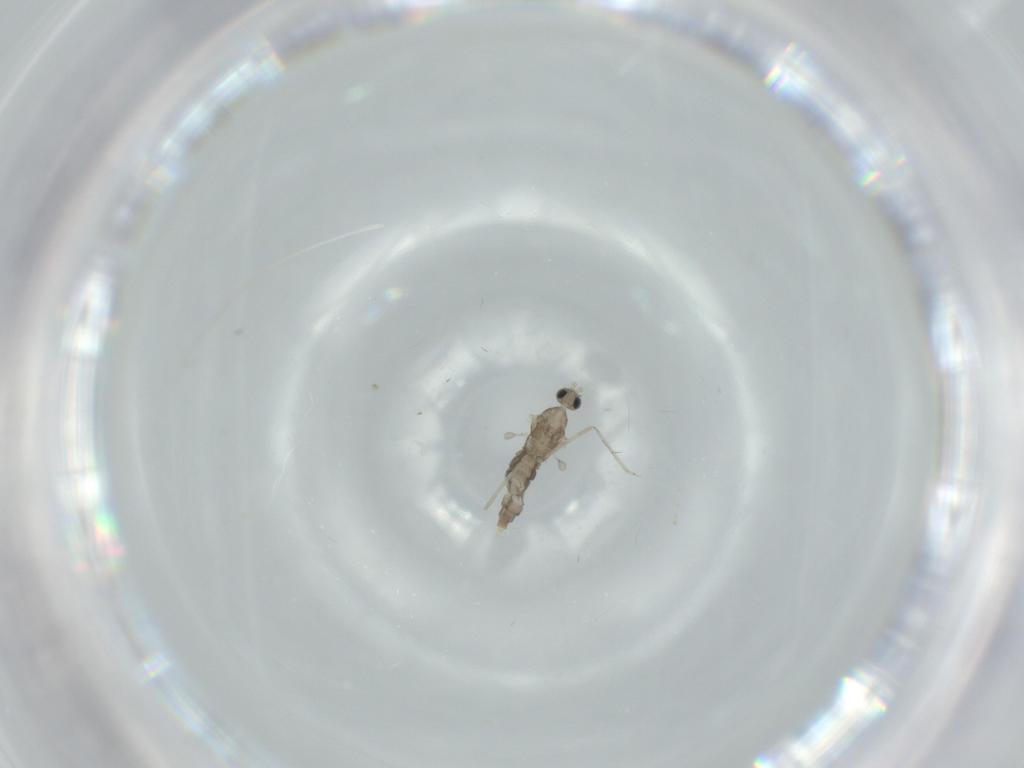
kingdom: Animalia
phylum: Arthropoda
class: Insecta
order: Diptera
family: Cecidomyiidae
